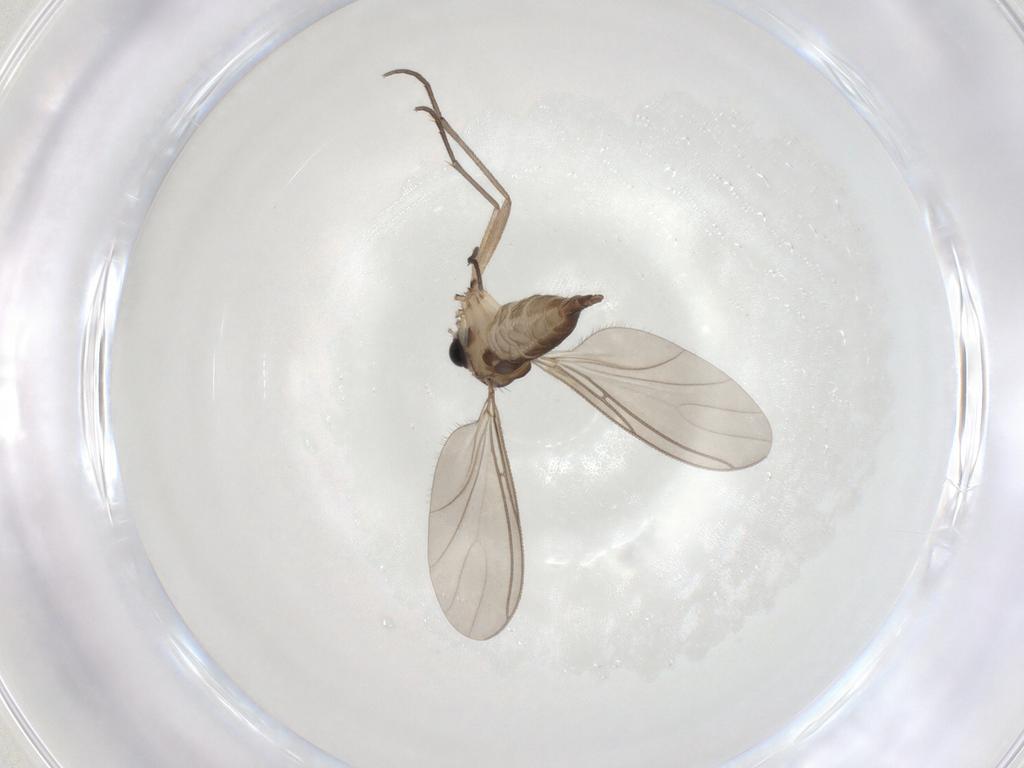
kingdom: Animalia
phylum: Arthropoda
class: Insecta
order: Diptera
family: Sciaridae
